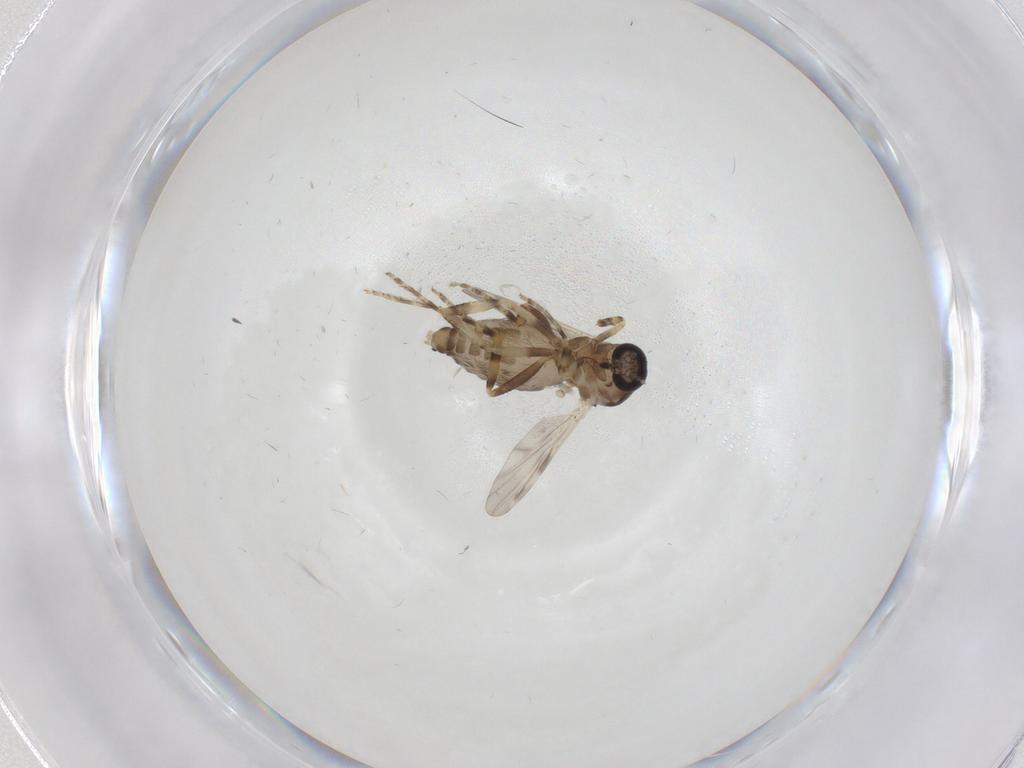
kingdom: Animalia
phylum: Arthropoda
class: Insecta
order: Diptera
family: Ceratopogonidae
